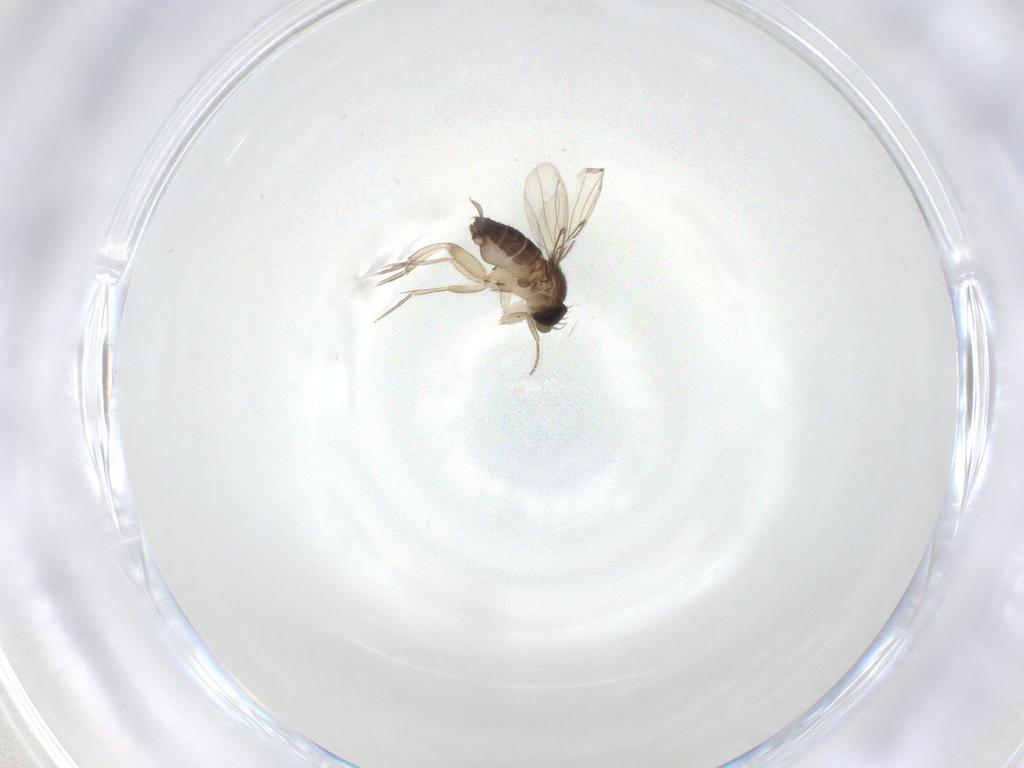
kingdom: Animalia
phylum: Arthropoda
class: Insecta
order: Diptera
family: Phoridae
